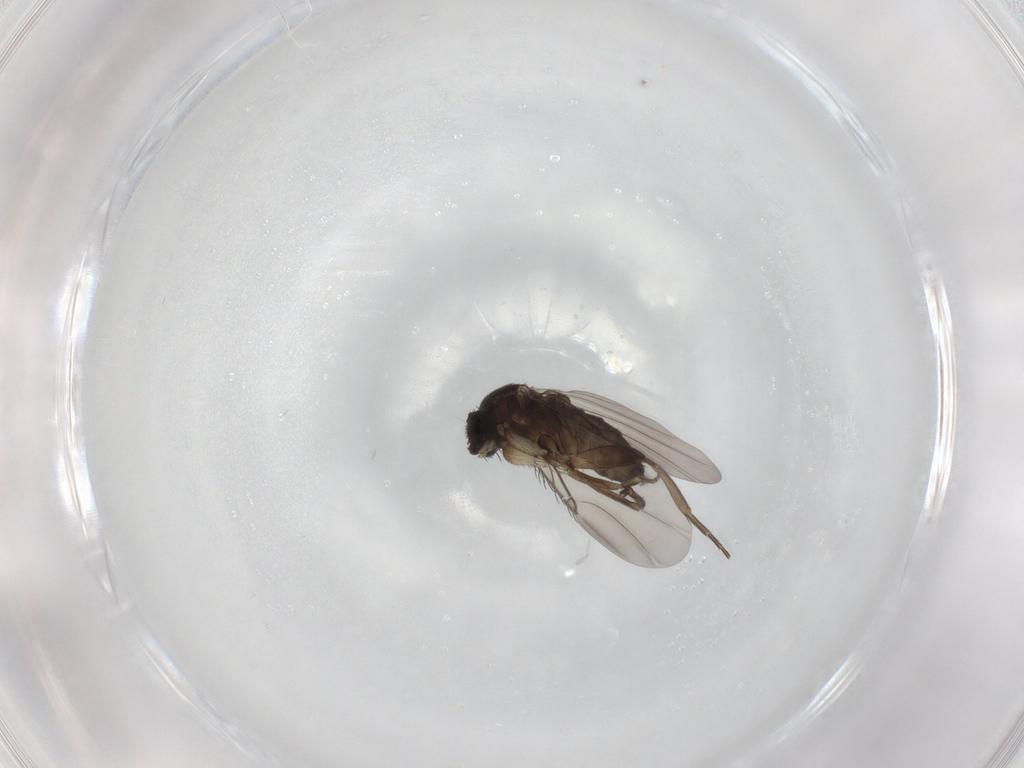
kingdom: Animalia
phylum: Arthropoda
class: Insecta
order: Diptera
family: Phoridae
